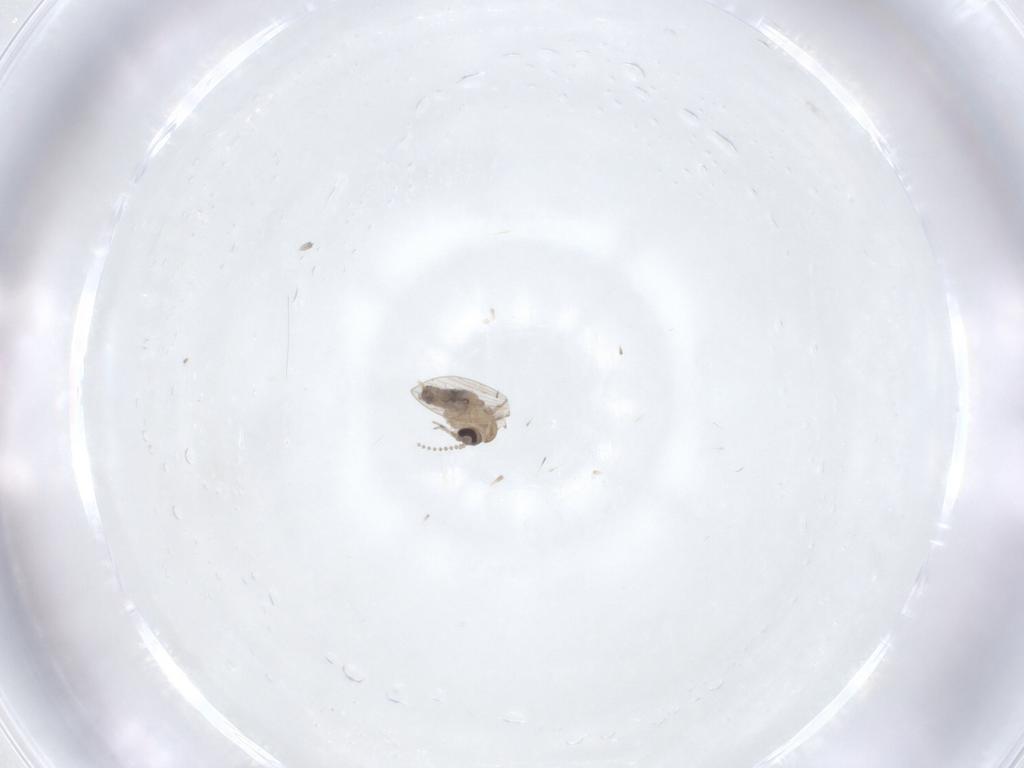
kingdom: Animalia
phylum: Arthropoda
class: Insecta
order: Diptera
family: Psychodidae
